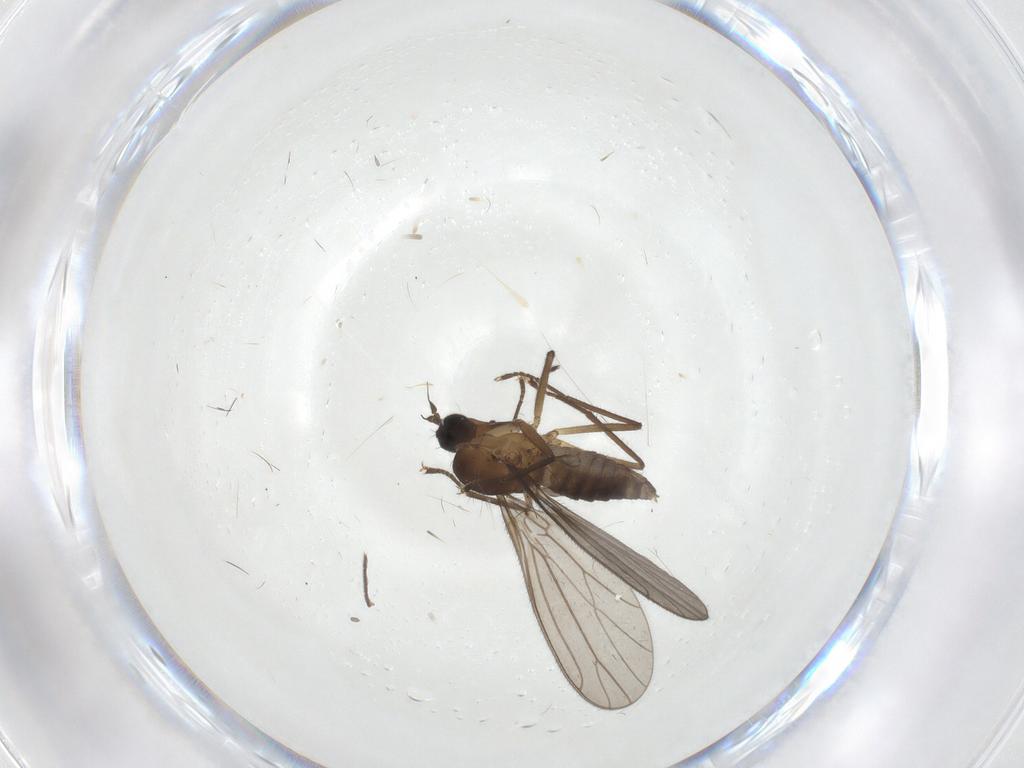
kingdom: Animalia
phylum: Arthropoda
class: Insecta
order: Diptera
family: Empididae
